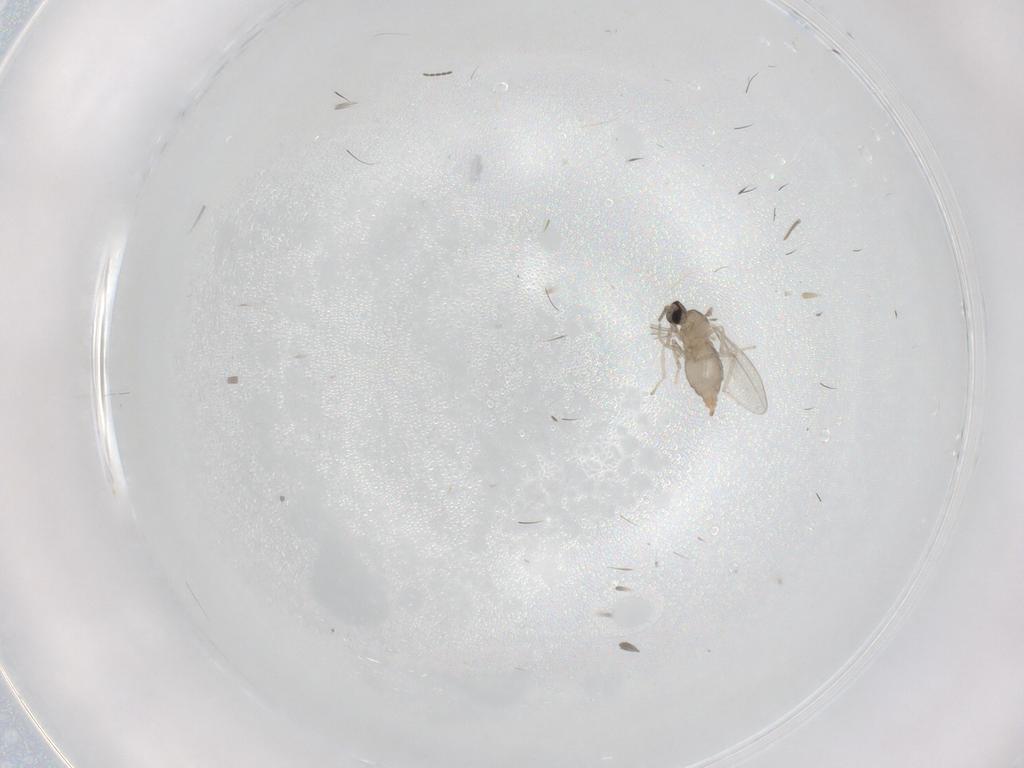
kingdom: Animalia
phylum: Arthropoda
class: Insecta
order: Diptera
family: Cecidomyiidae
